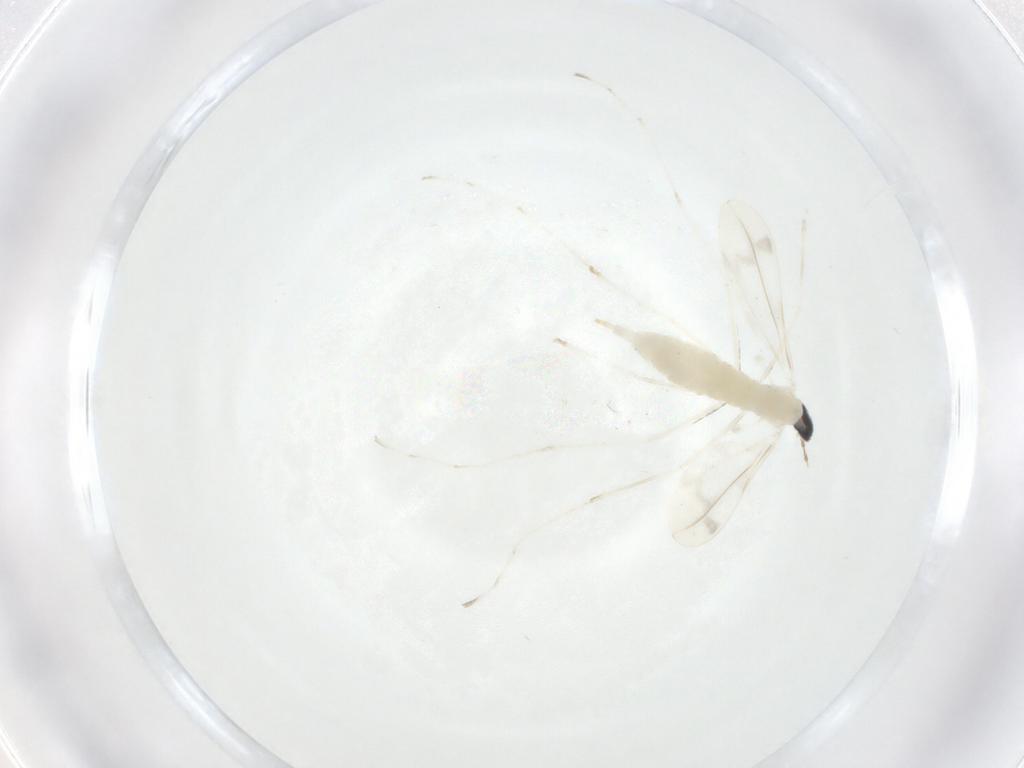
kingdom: Animalia
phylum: Arthropoda
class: Insecta
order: Diptera
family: Cecidomyiidae
